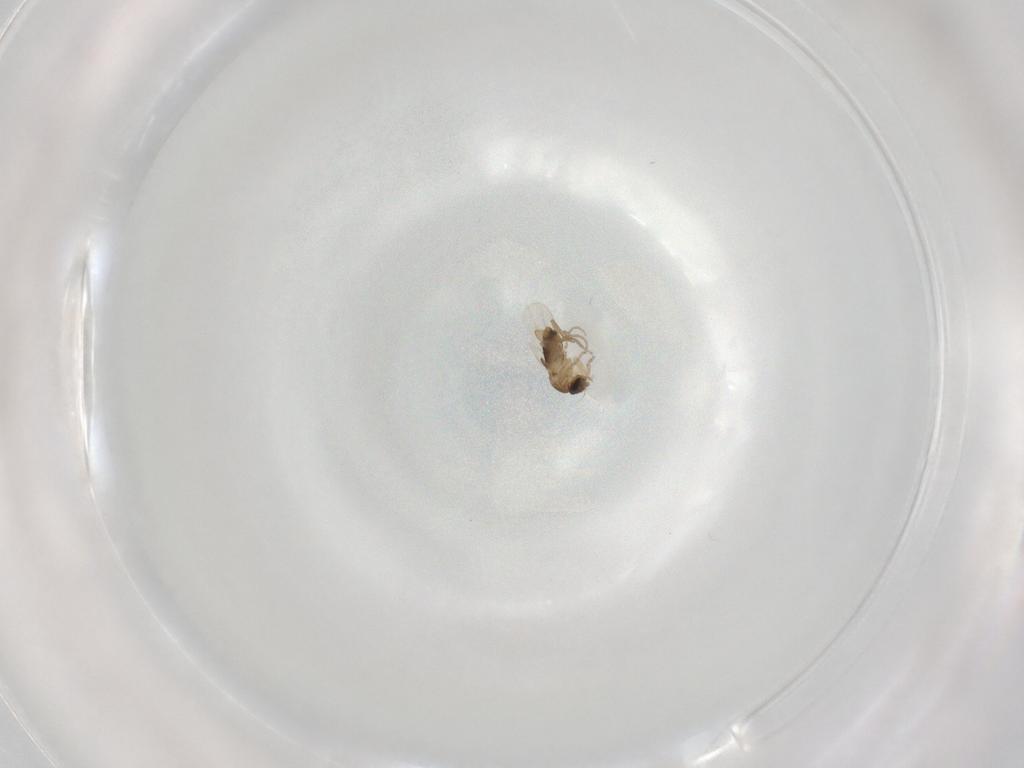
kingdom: Animalia
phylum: Arthropoda
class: Insecta
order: Diptera
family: Phoridae
